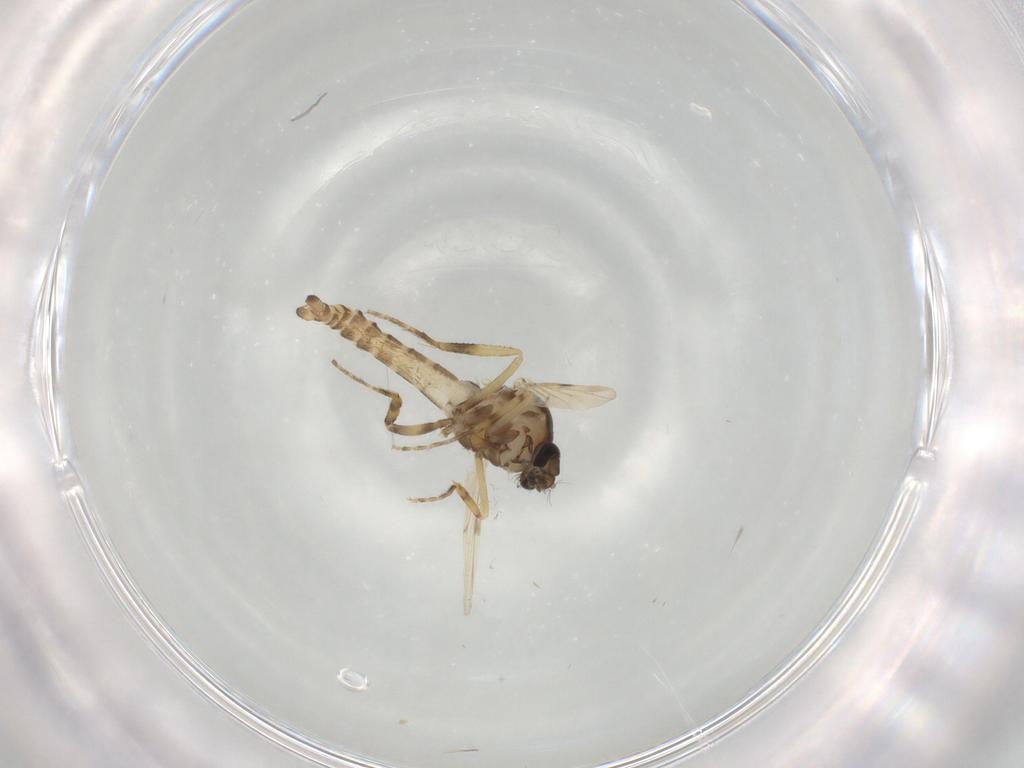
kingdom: Animalia
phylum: Arthropoda
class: Insecta
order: Diptera
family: Ceratopogonidae
